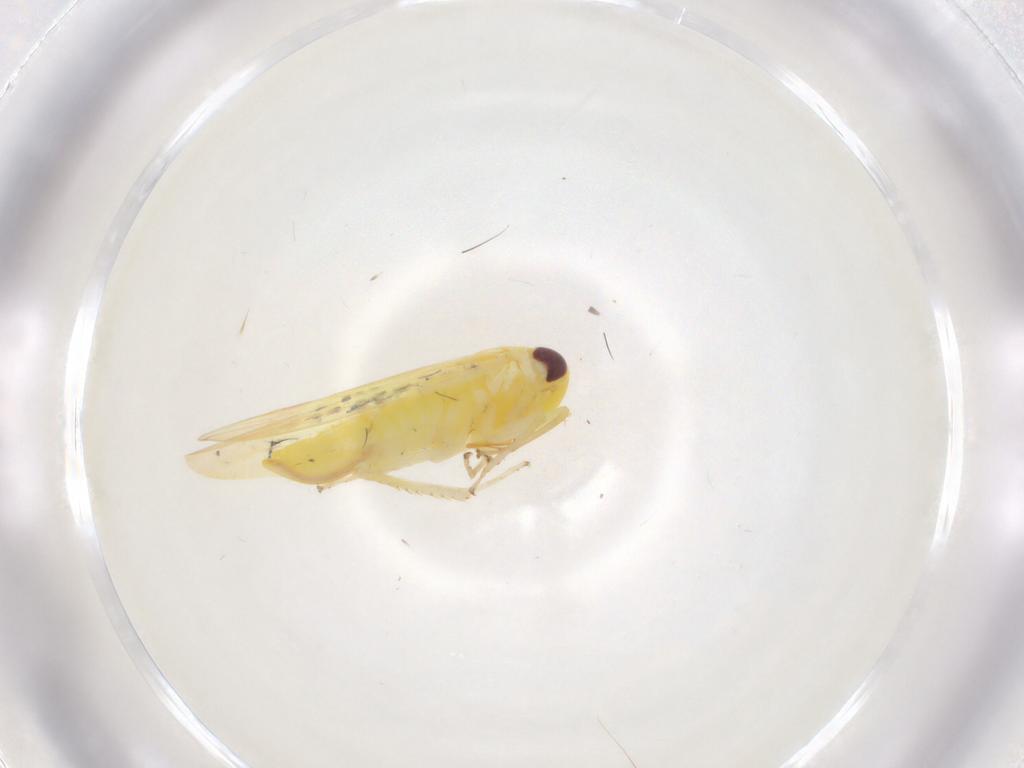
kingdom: Animalia
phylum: Arthropoda
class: Insecta
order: Hemiptera
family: Cicadellidae
